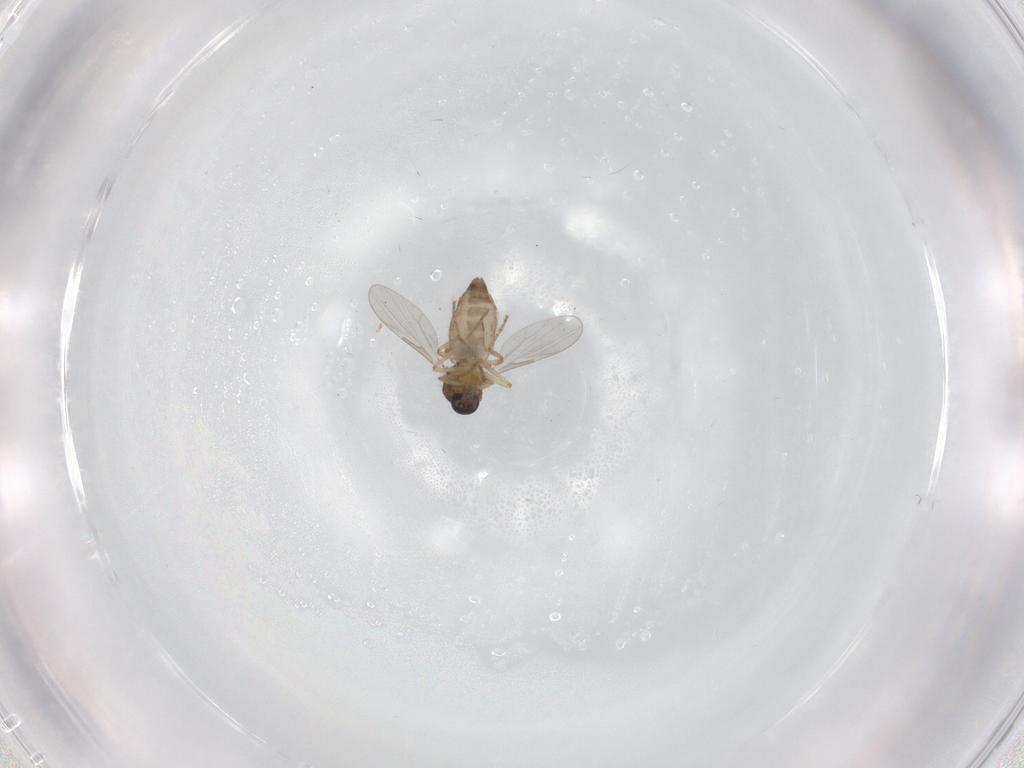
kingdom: Animalia
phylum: Arthropoda
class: Insecta
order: Diptera
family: Ceratopogonidae
